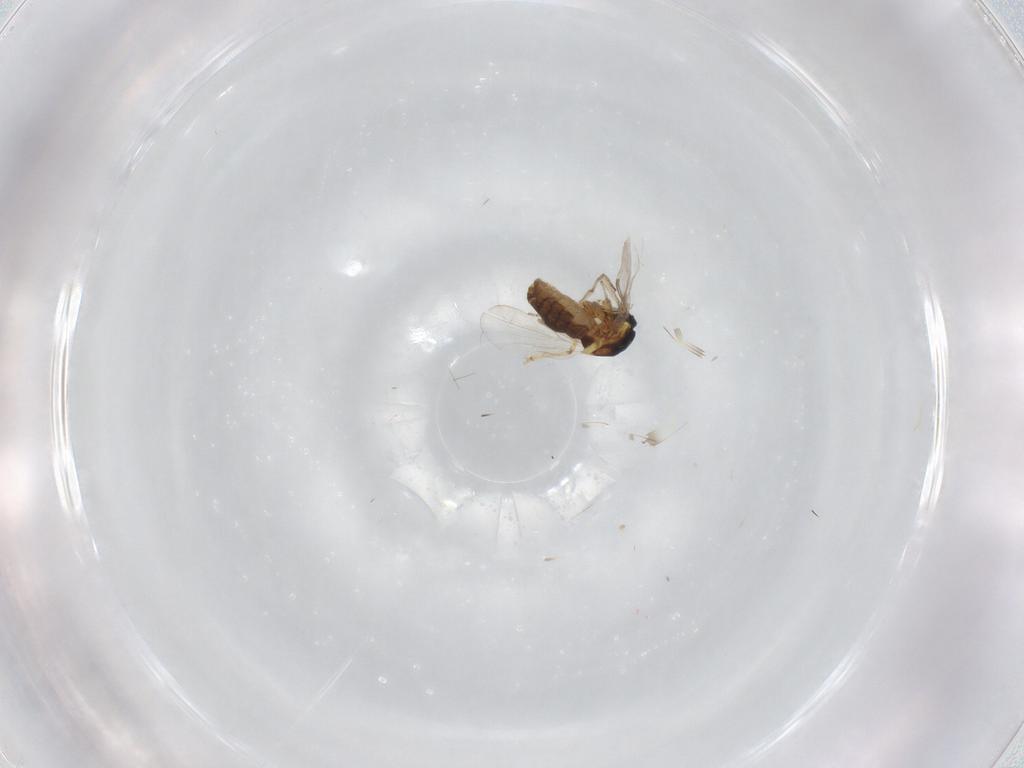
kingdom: Animalia
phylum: Arthropoda
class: Insecta
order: Diptera
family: Ceratopogonidae
